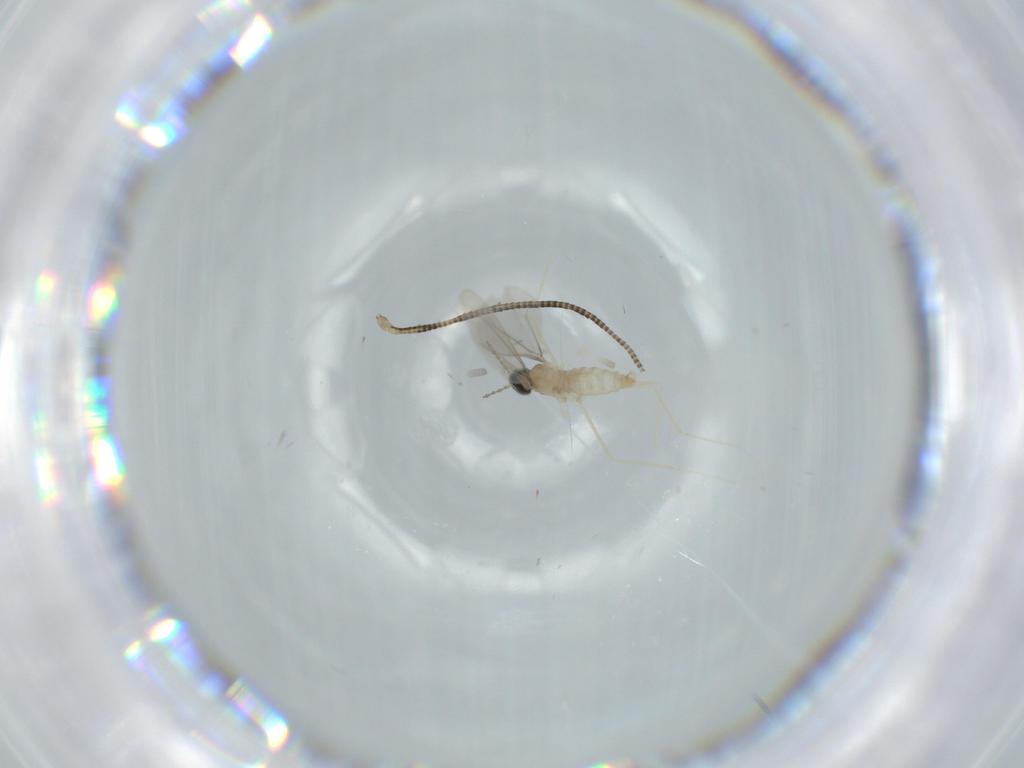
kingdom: Animalia
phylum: Arthropoda
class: Insecta
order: Diptera
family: Cecidomyiidae
